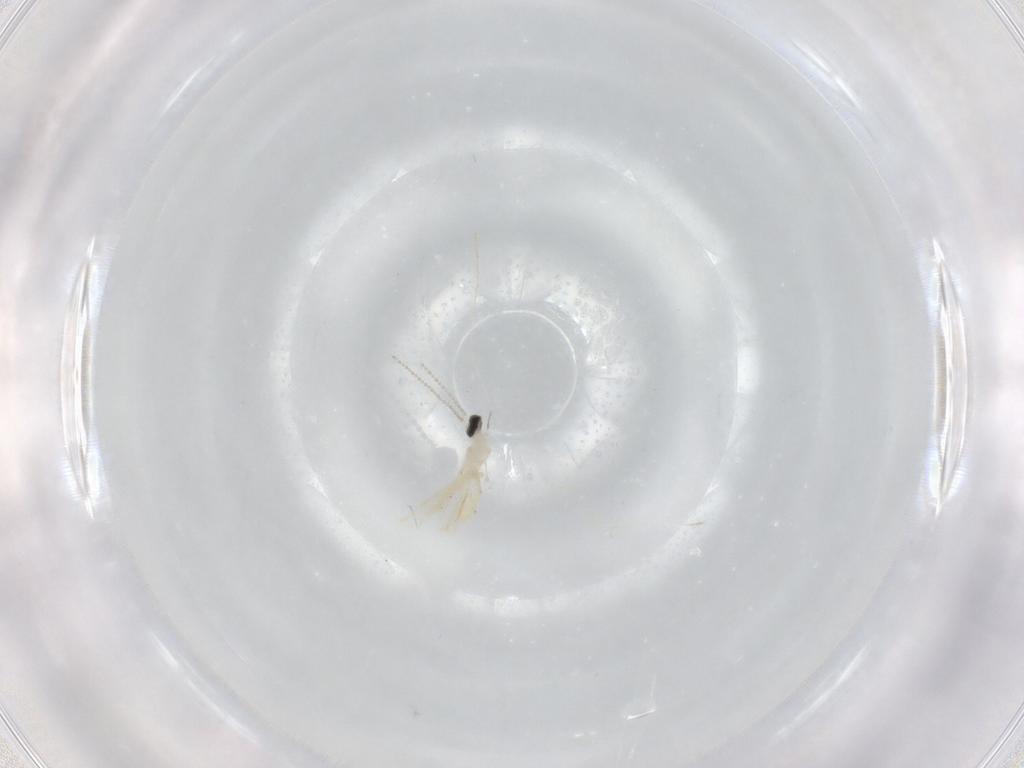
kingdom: Animalia
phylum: Arthropoda
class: Insecta
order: Diptera
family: Cecidomyiidae
